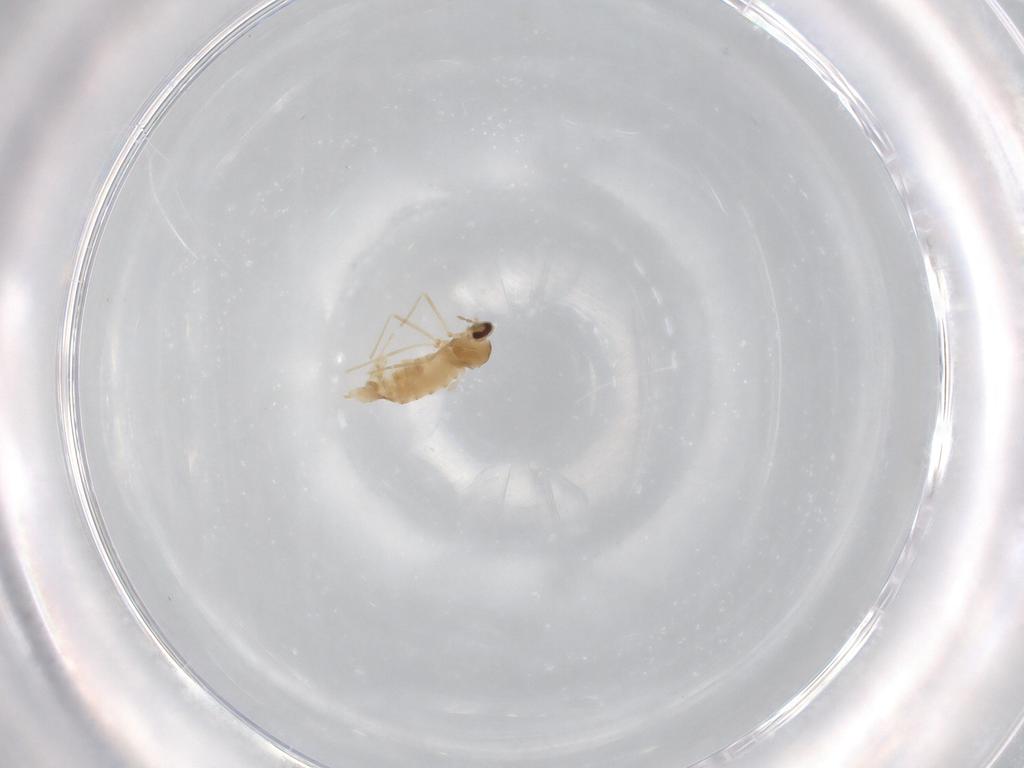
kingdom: Animalia
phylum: Arthropoda
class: Insecta
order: Diptera
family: Cecidomyiidae
